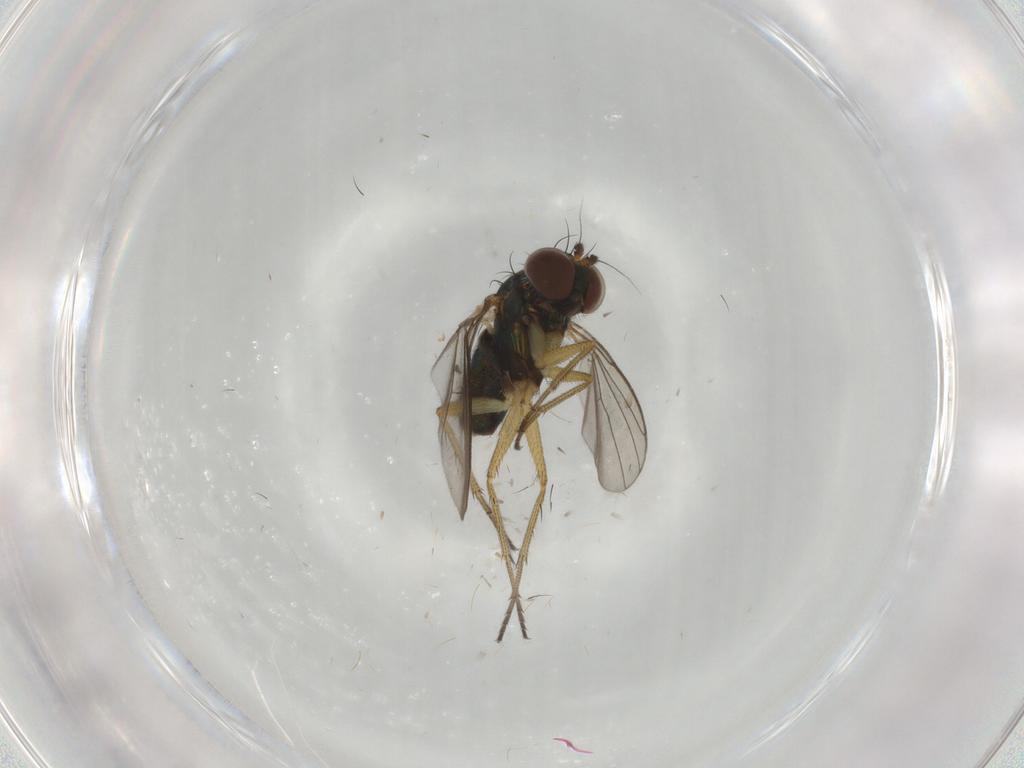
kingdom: Animalia
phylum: Arthropoda
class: Insecta
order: Diptera
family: Dolichopodidae
